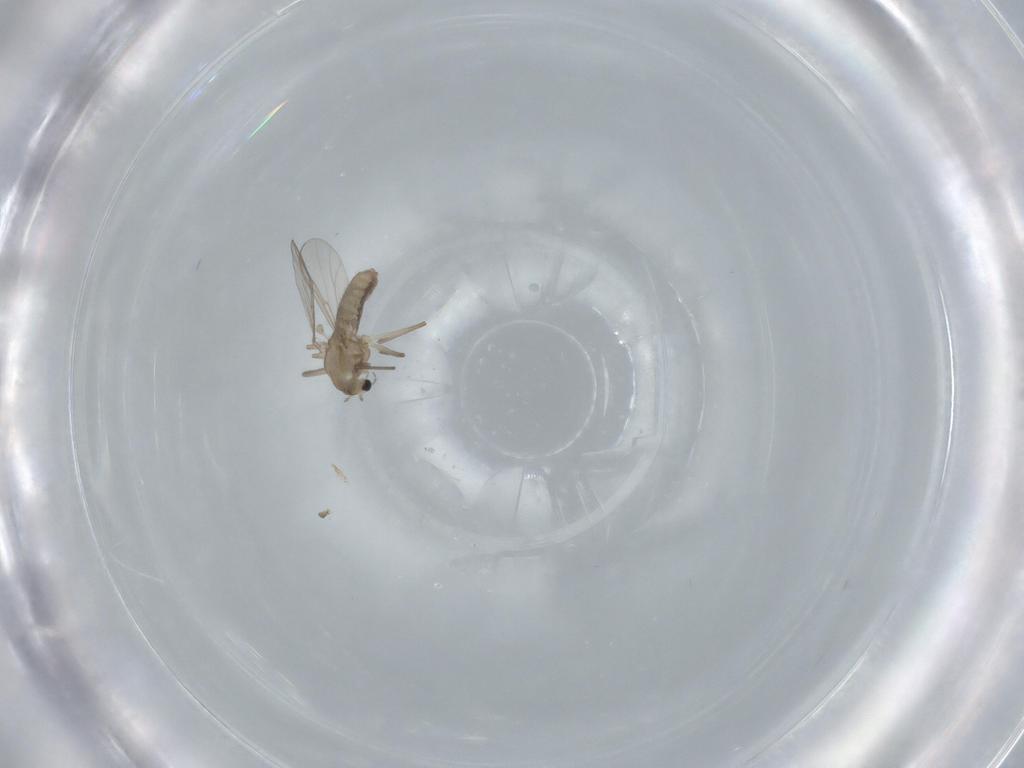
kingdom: Animalia
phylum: Arthropoda
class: Insecta
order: Diptera
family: Chironomidae
